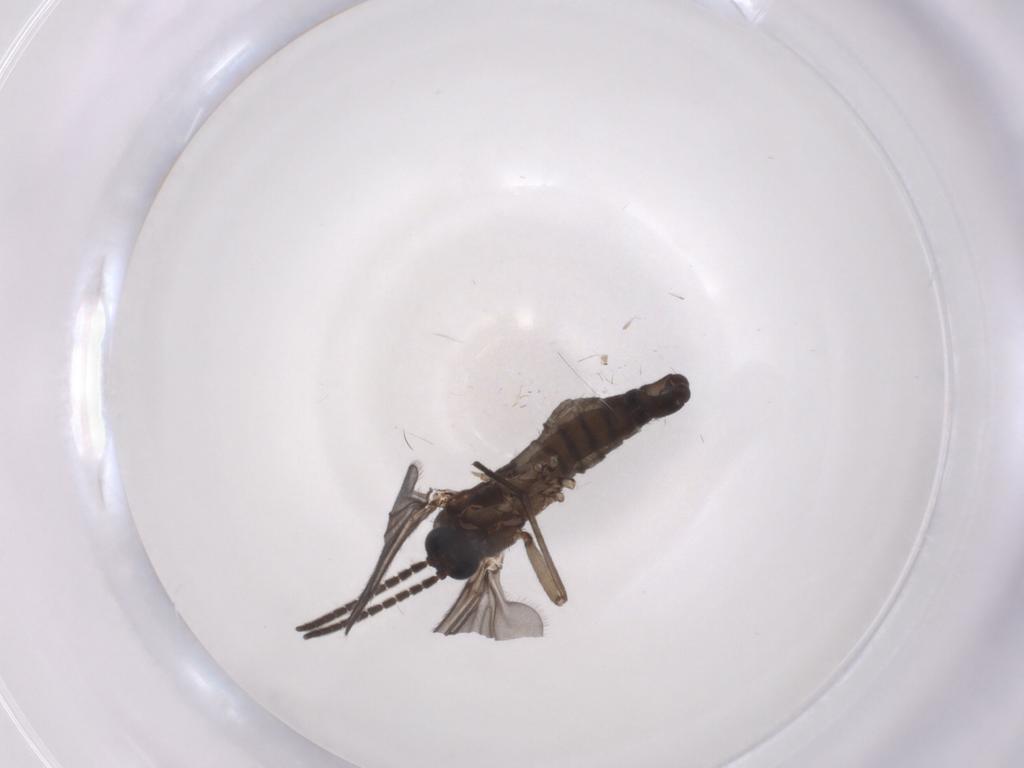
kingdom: Animalia
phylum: Arthropoda
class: Insecta
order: Diptera
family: Sciaridae
